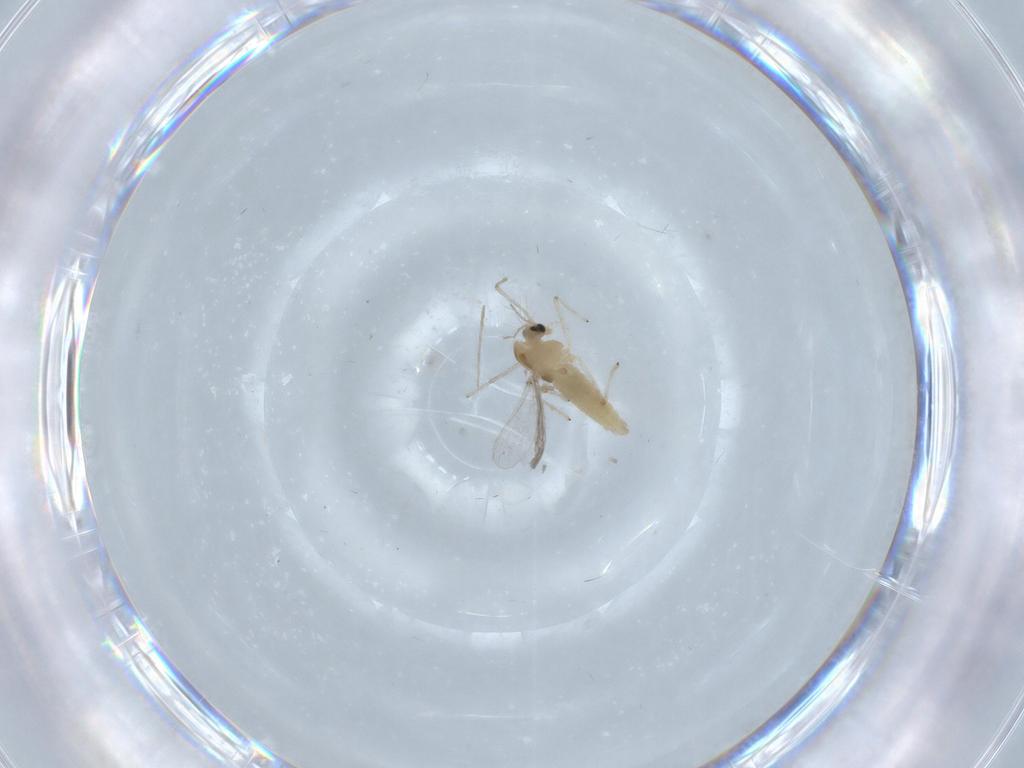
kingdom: Animalia
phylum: Arthropoda
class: Insecta
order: Diptera
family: Chironomidae
